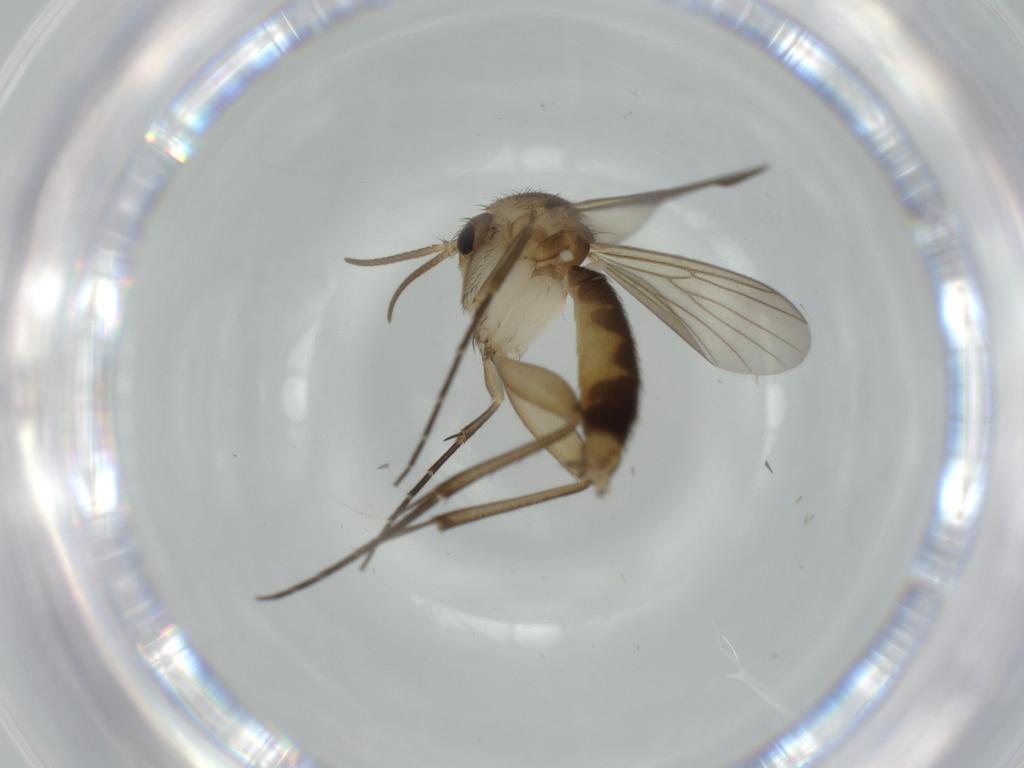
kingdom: Animalia
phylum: Arthropoda
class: Insecta
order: Diptera
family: Mycetophilidae
